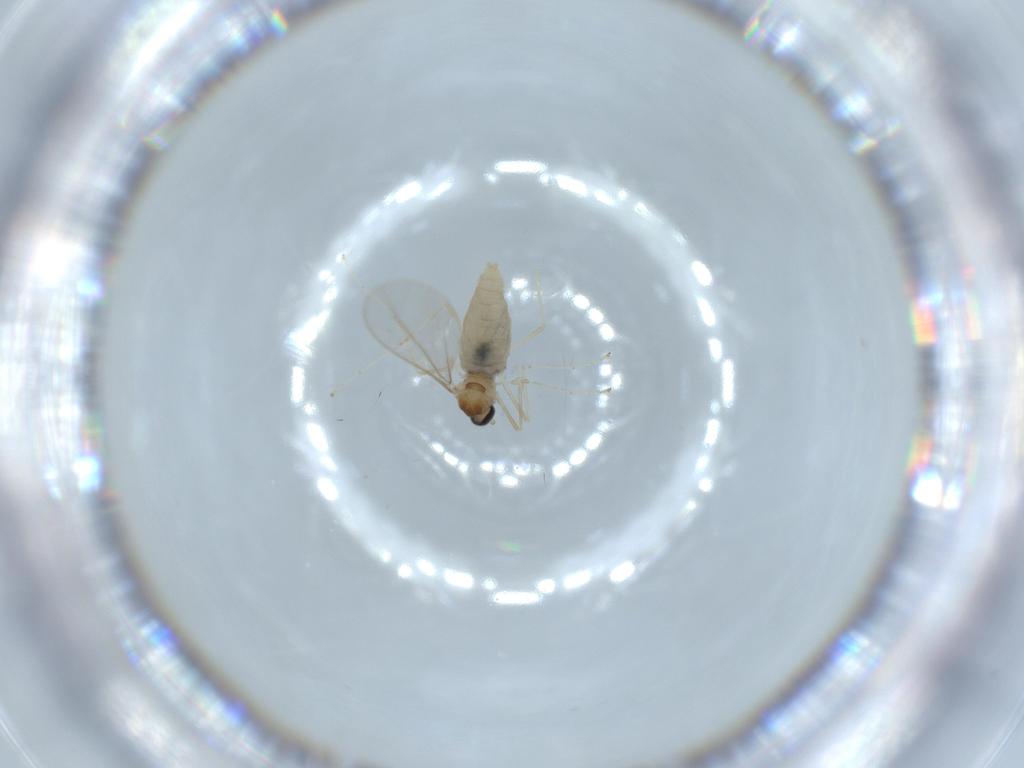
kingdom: Animalia
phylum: Arthropoda
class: Insecta
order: Diptera
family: Cecidomyiidae
